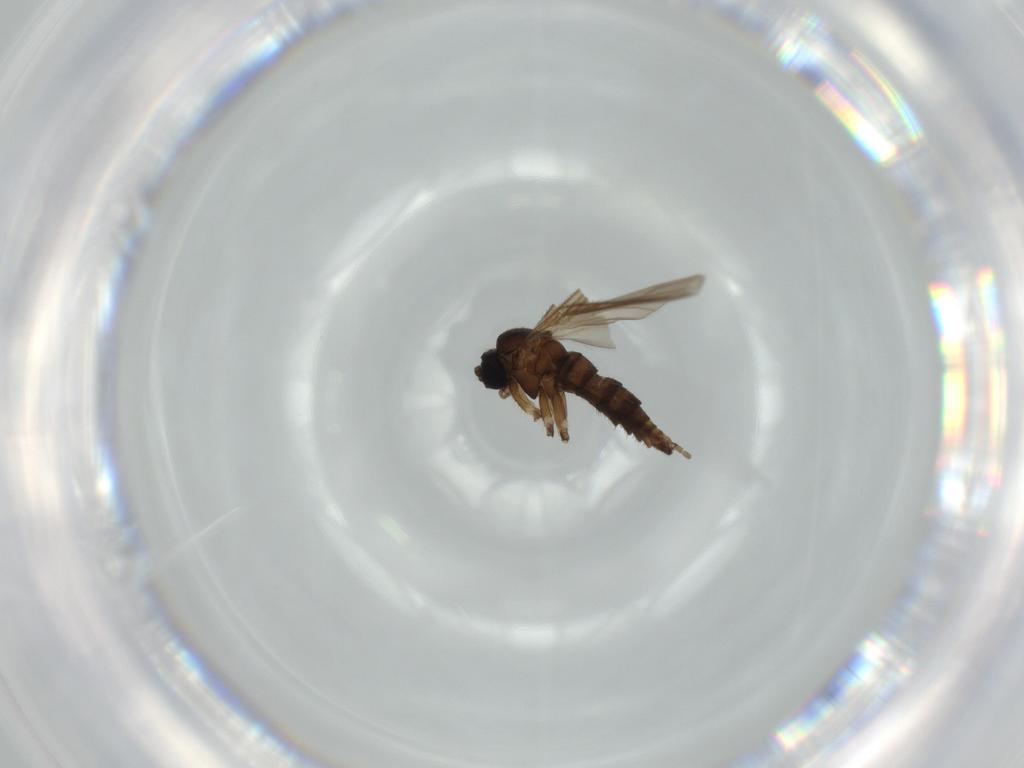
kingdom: Animalia
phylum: Arthropoda
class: Insecta
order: Diptera
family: Sciaridae
